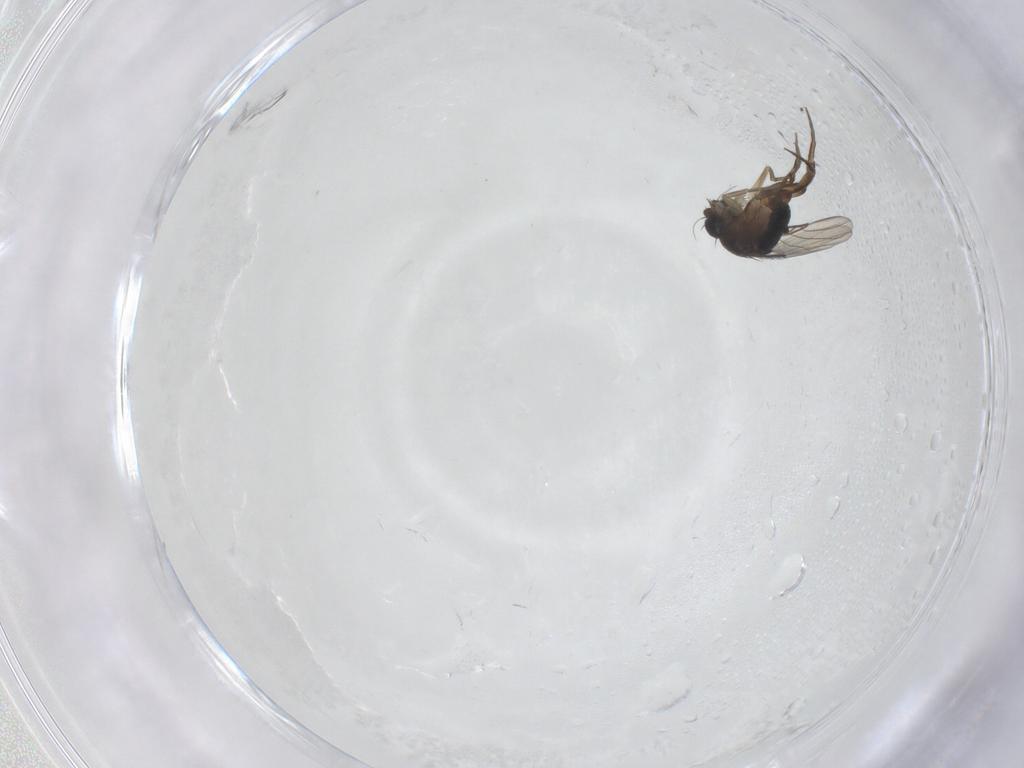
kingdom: Animalia
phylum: Arthropoda
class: Insecta
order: Diptera
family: Phoridae
